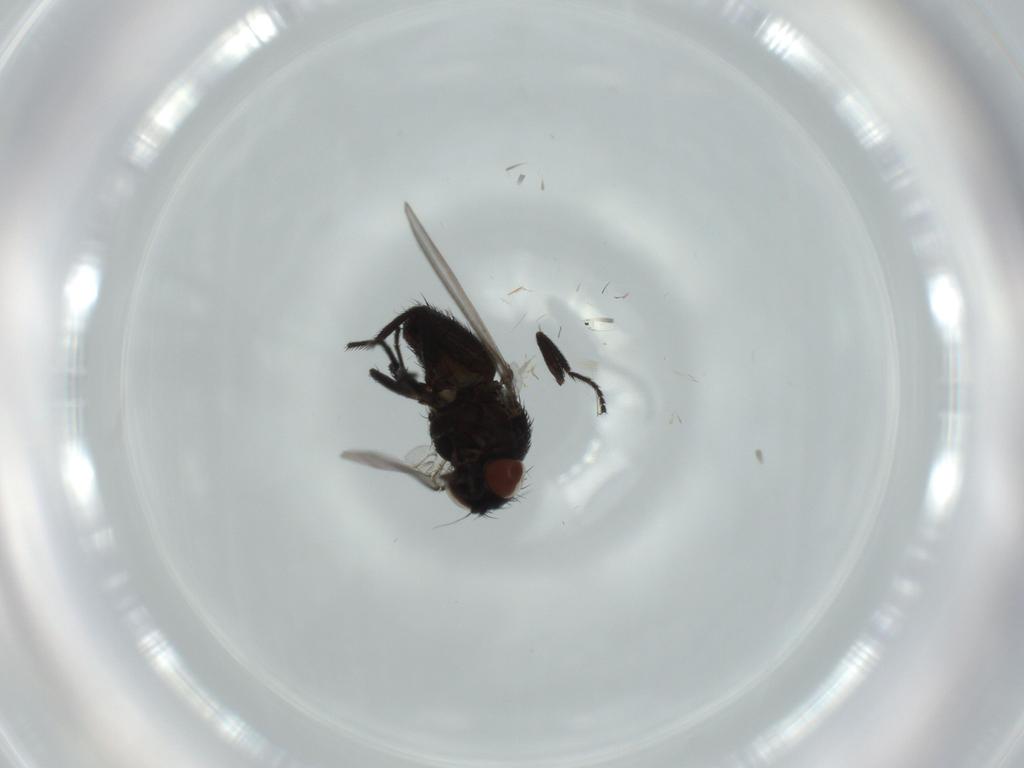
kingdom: Animalia
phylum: Arthropoda
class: Insecta
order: Diptera
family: Milichiidae
